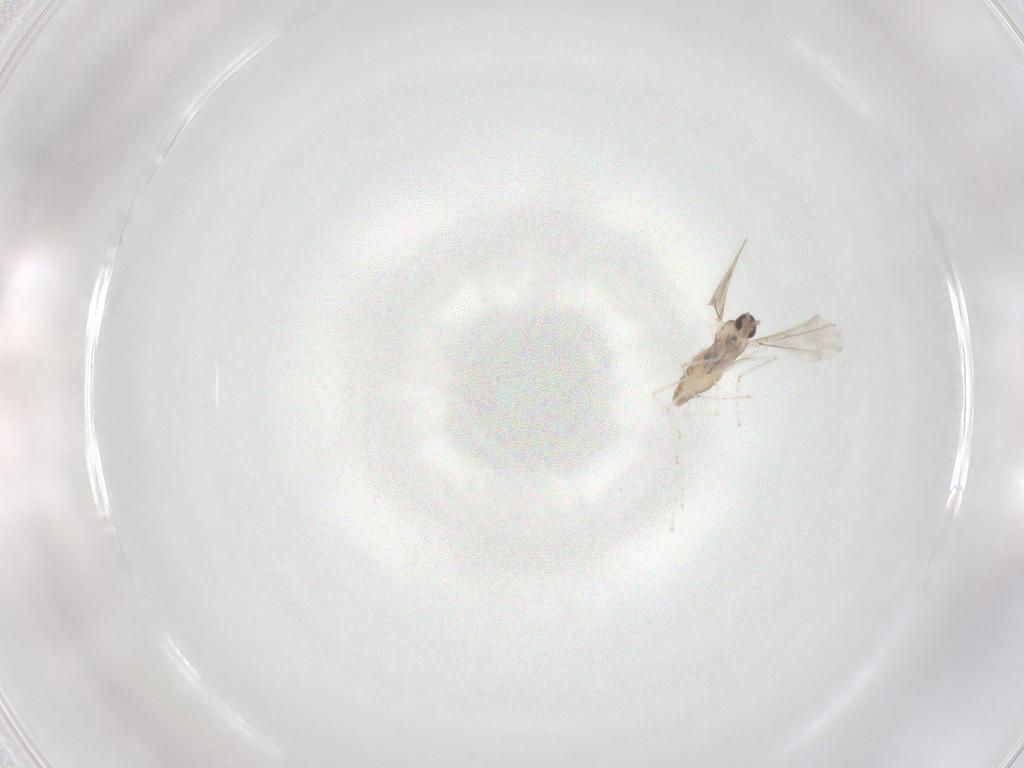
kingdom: Animalia
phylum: Arthropoda
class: Insecta
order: Diptera
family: Cecidomyiidae
